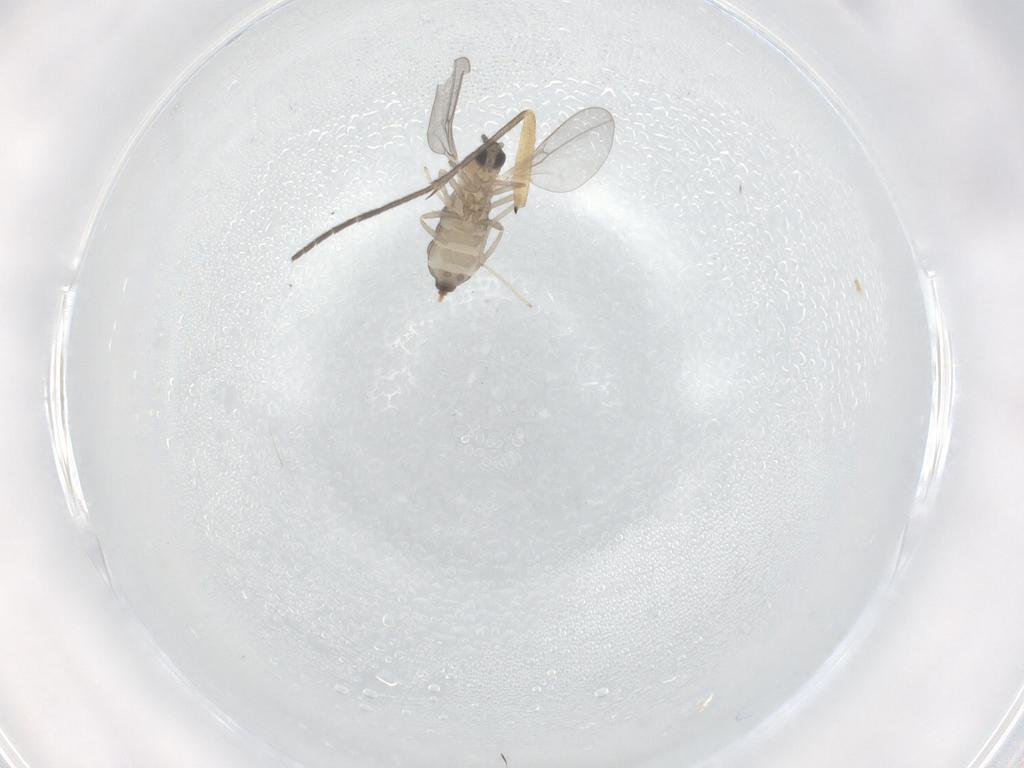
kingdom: Animalia
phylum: Arthropoda
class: Insecta
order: Diptera
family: Cecidomyiidae
